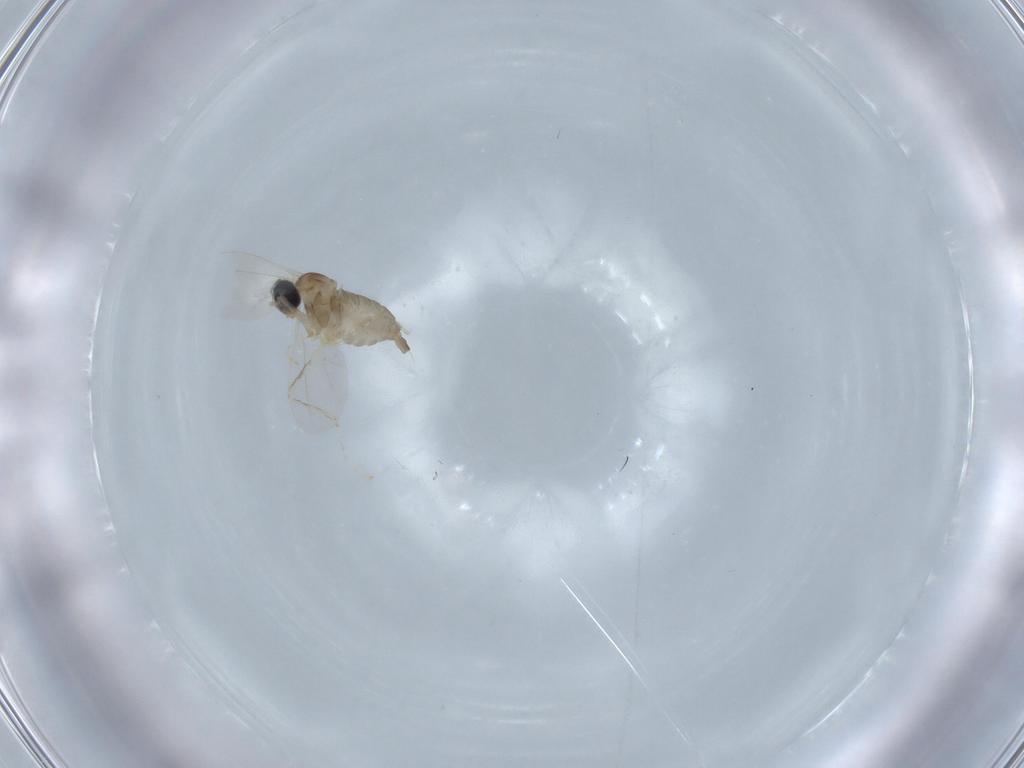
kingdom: Animalia
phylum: Arthropoda
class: Insecta
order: Diptera
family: Cecidomyiidae
